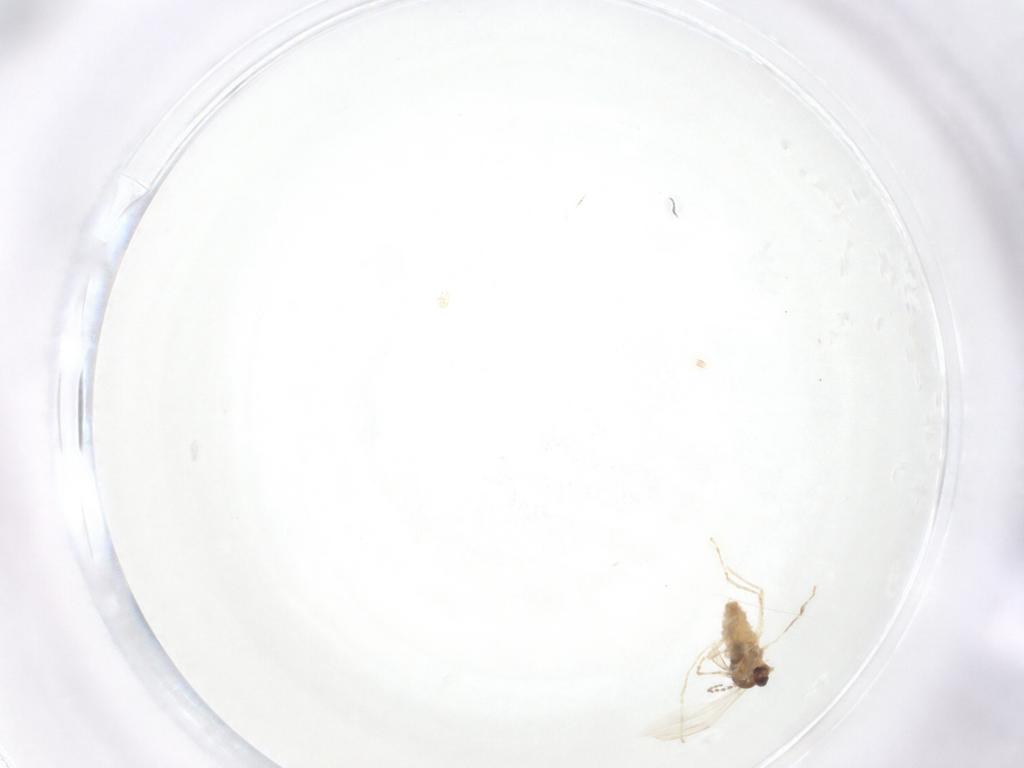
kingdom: Animalia
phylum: Arthropoda
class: Insecta
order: Diptera
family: Cecidomyiidae
